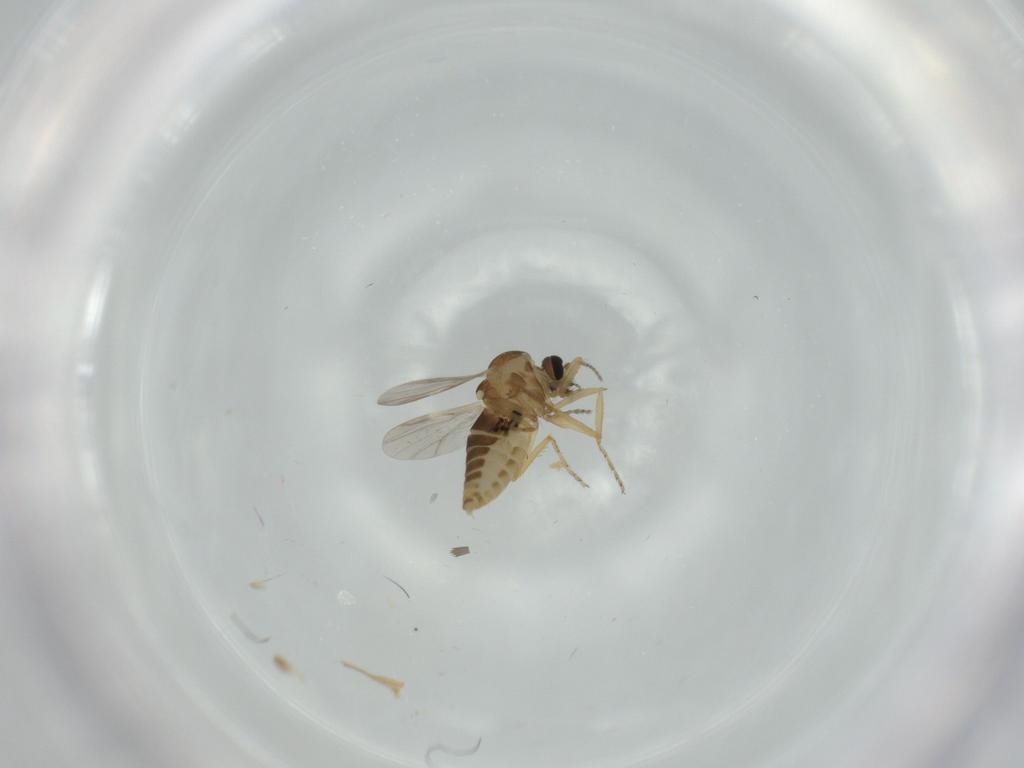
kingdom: Animalia
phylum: Arthropoda
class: Insecta
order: Diptera
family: Ceratopogonidae
